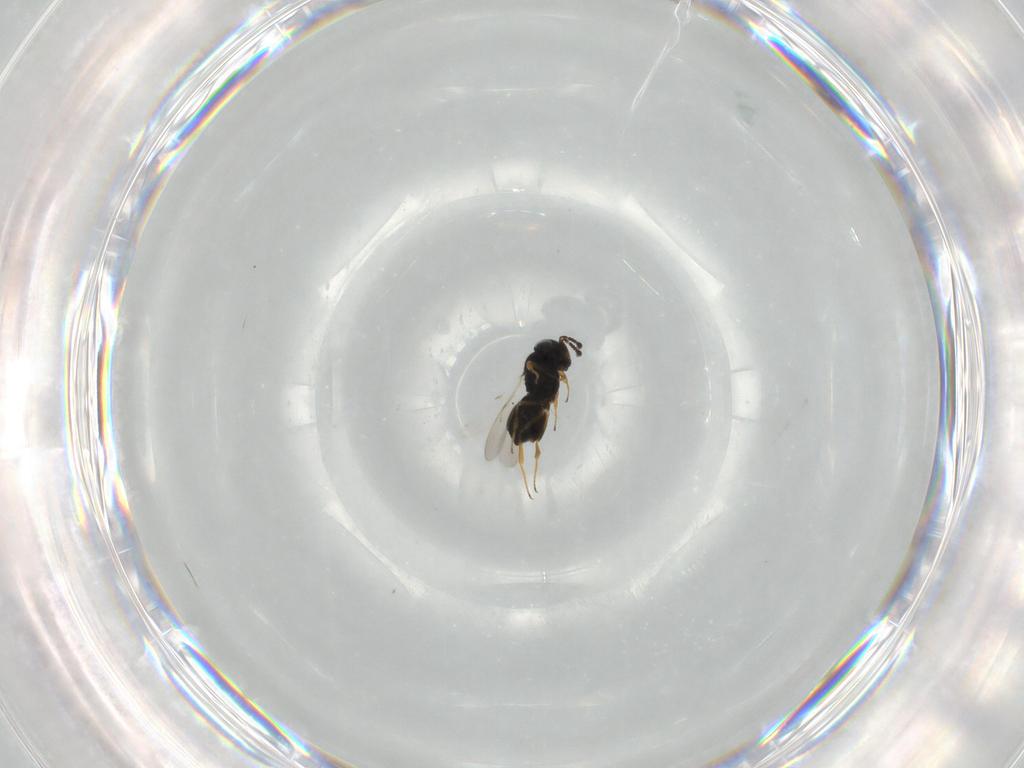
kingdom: Animalia
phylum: Arthropoda
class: Insecta
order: Hymenoptera
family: Scelionidae
